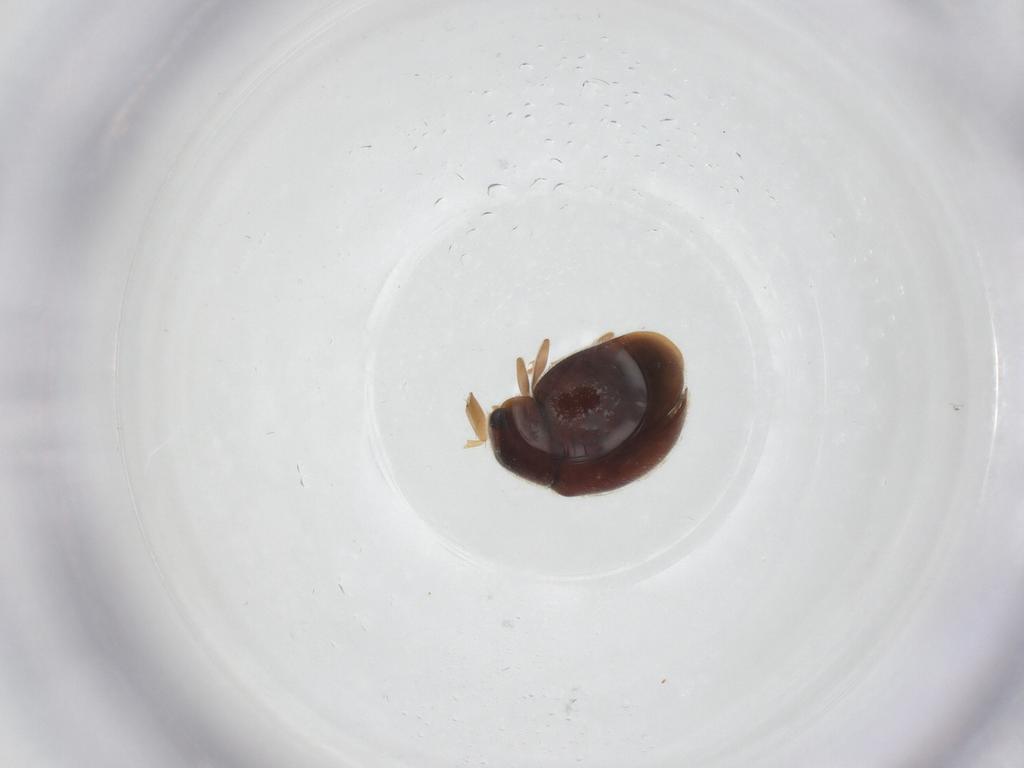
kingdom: Animalia
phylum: Arthropoda
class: Insecta
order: Coleoptera
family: Coccinellidae
